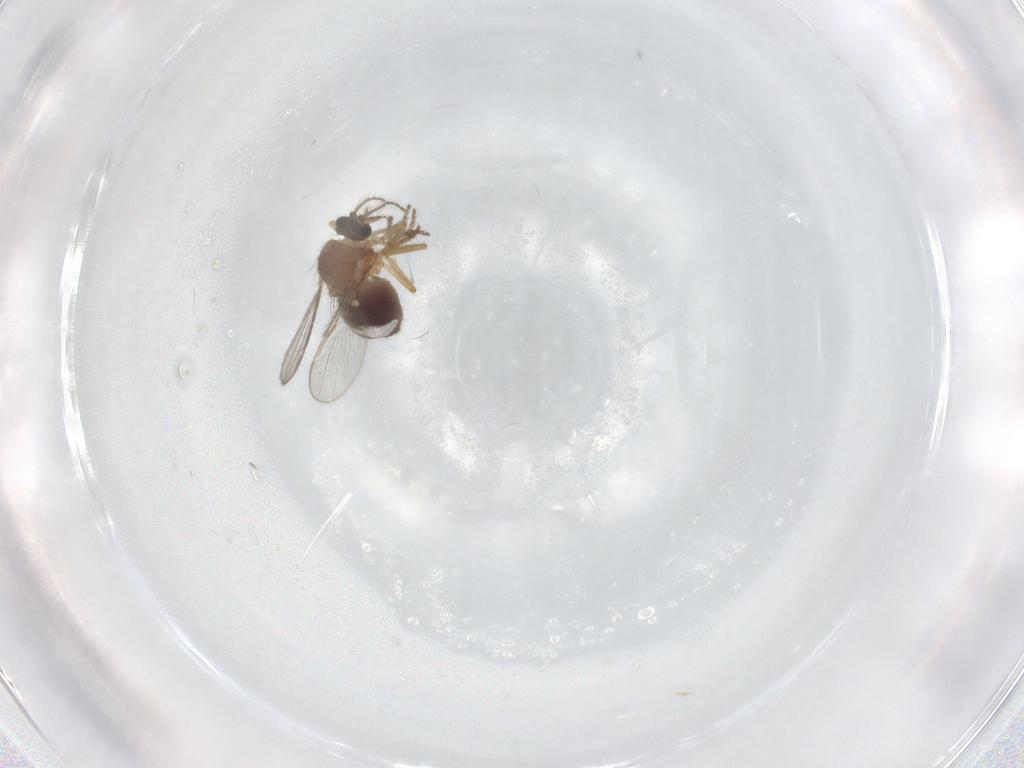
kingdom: Animalia
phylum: Arthropoda
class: Insecta
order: Diptera
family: Ceratopogonidae
